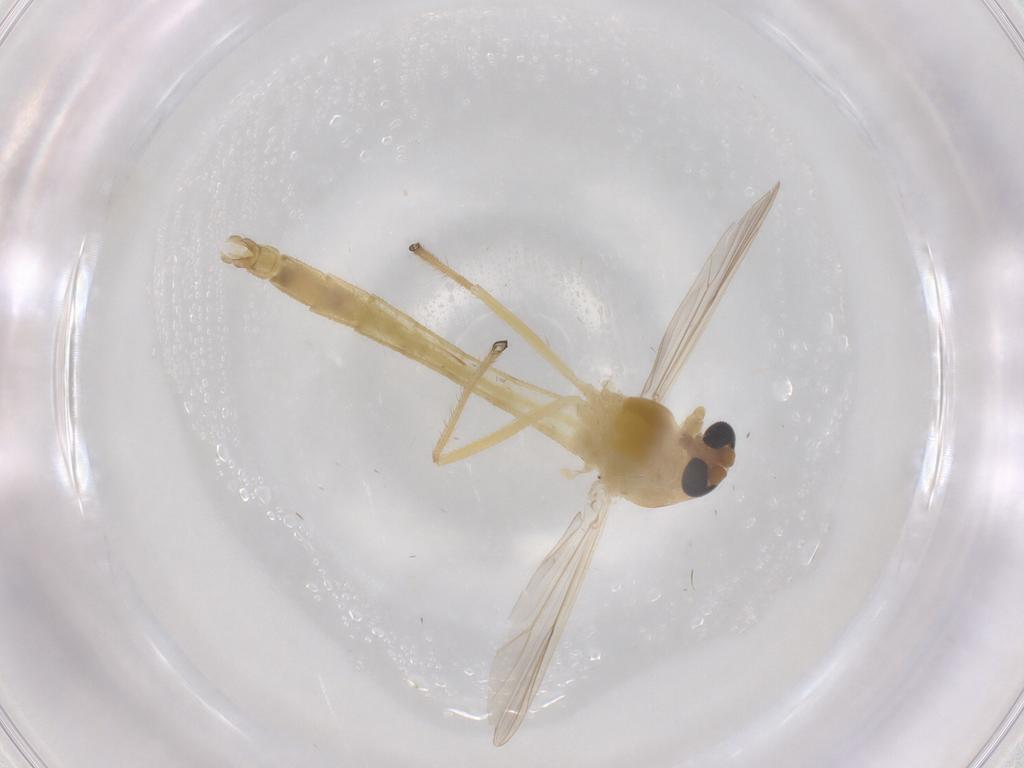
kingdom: Animalia
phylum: Arthropoda
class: Insecta
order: Diptera
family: Chironomidae
